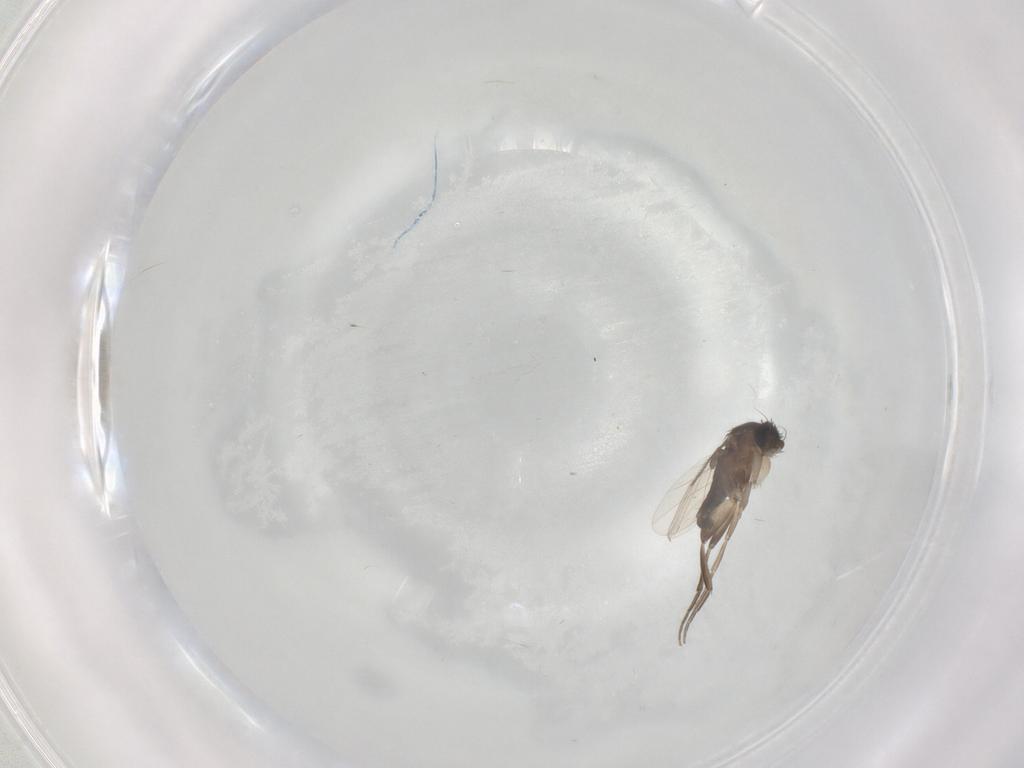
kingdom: Animalia
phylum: Arthropoda
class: Insecta
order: Diptera
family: Phoridae
